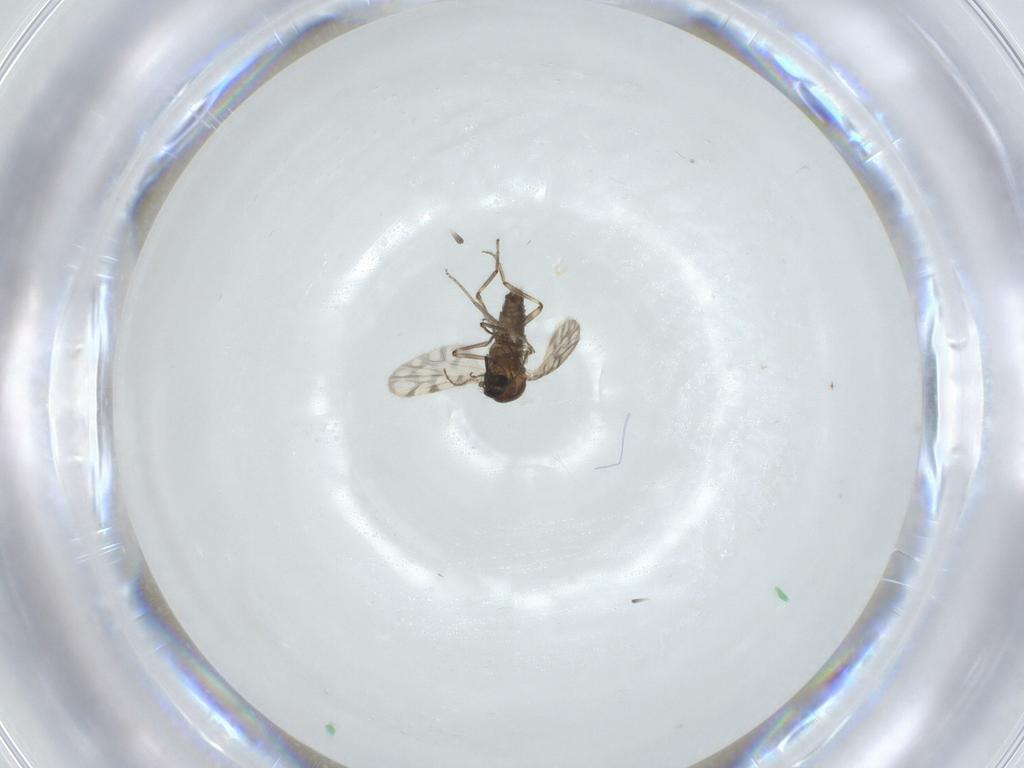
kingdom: Animalia
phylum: Arthropoda
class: Insecta
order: Diptera
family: Ceratopogonidae
